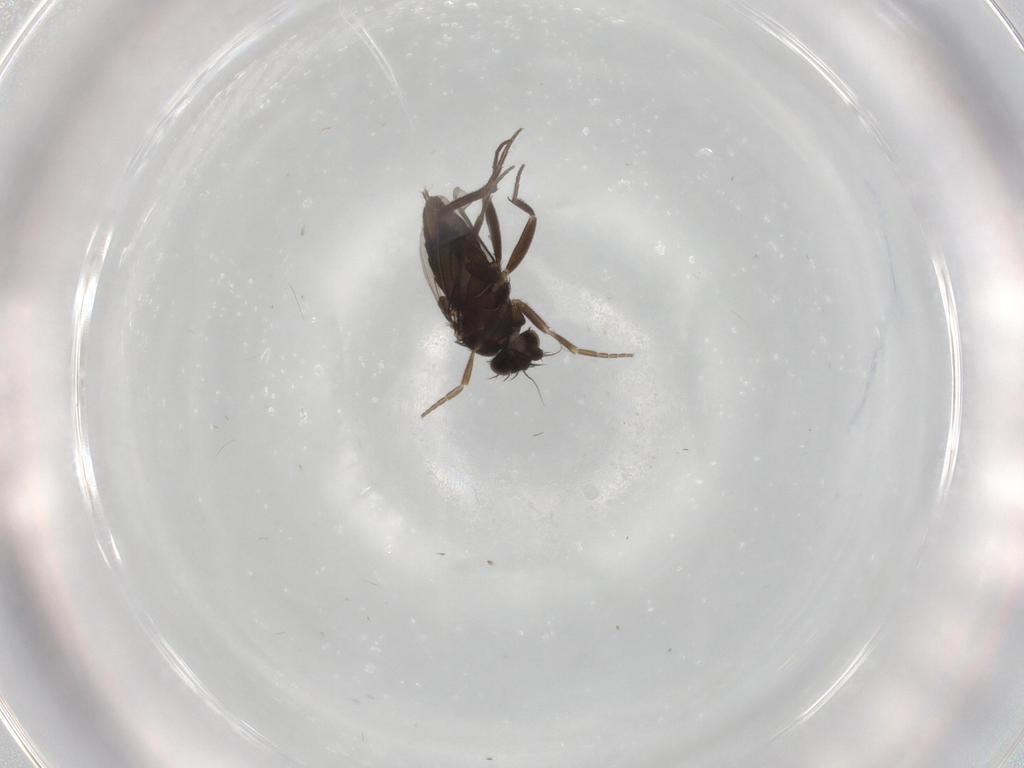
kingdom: Animalia
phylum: Arthropoda
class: Insecta
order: Diptera
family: Phoridae
